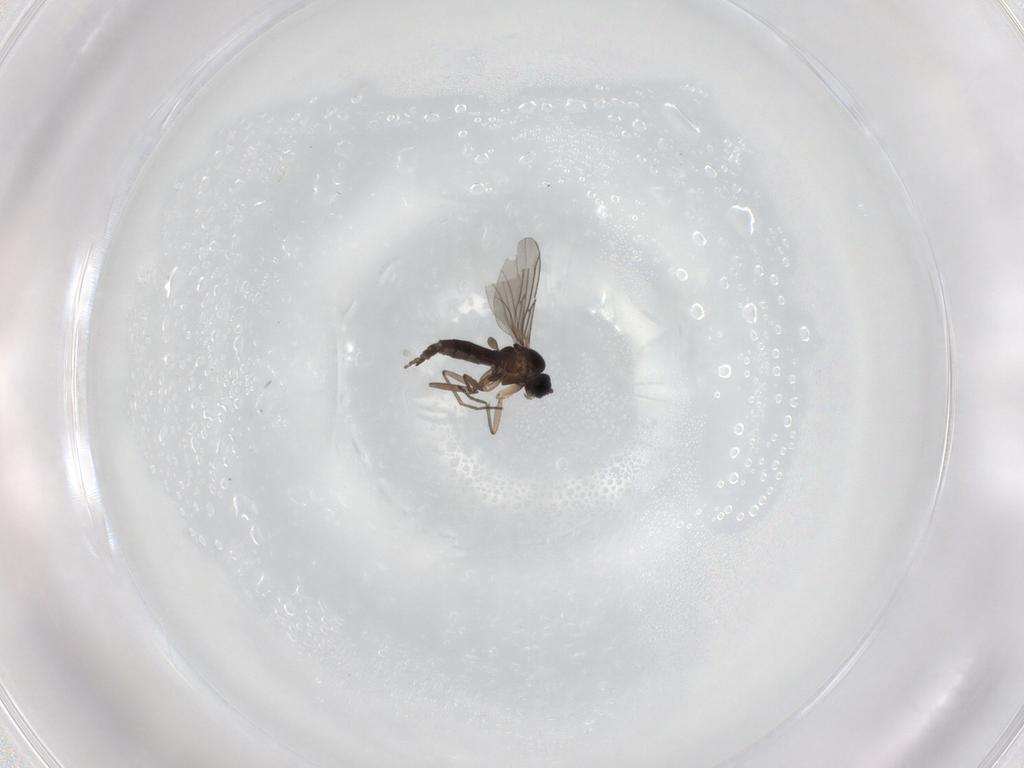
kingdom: Animalia
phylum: Arthropoda
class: Insecta
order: Diptera
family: Sciaridae
